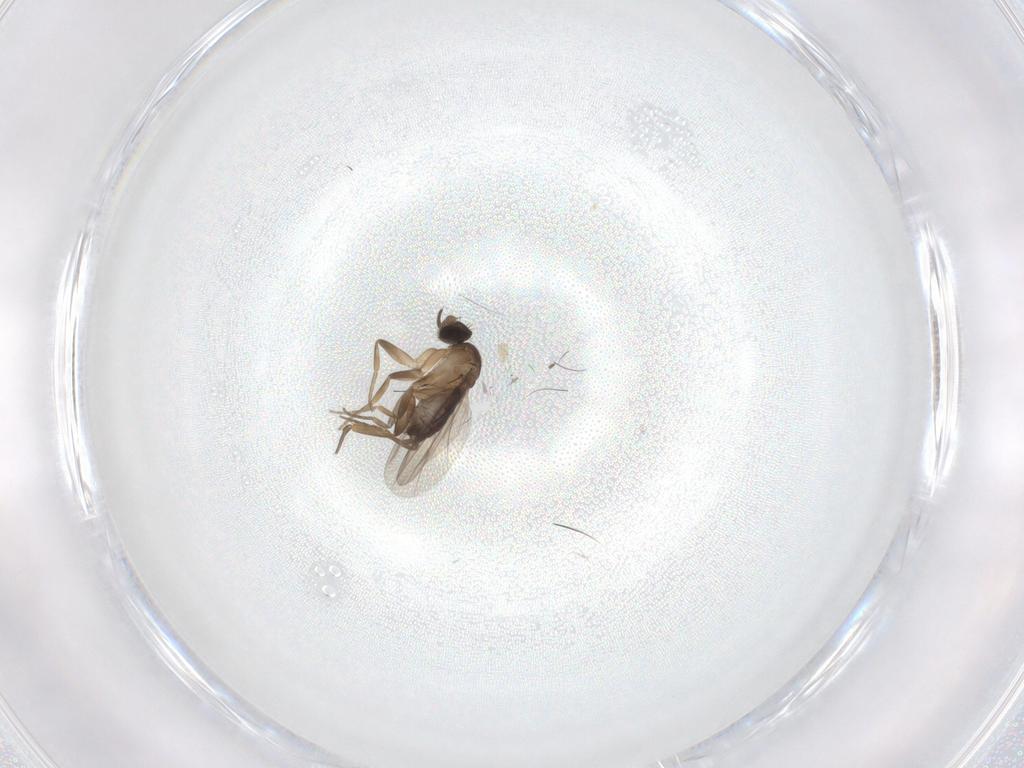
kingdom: Animalia
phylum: Arthropoda
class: Insecta
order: Diptera
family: Phoridae
